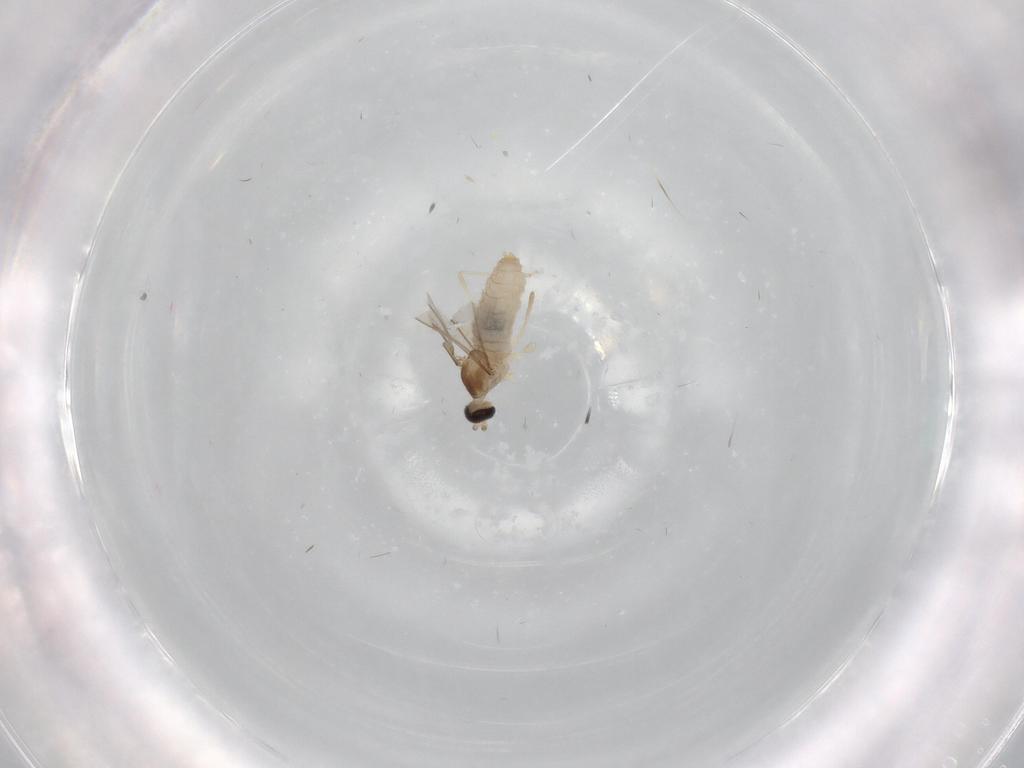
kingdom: Animalia
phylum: Arthropoda
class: Insecta
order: Diptera
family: Cecidomyiidae
